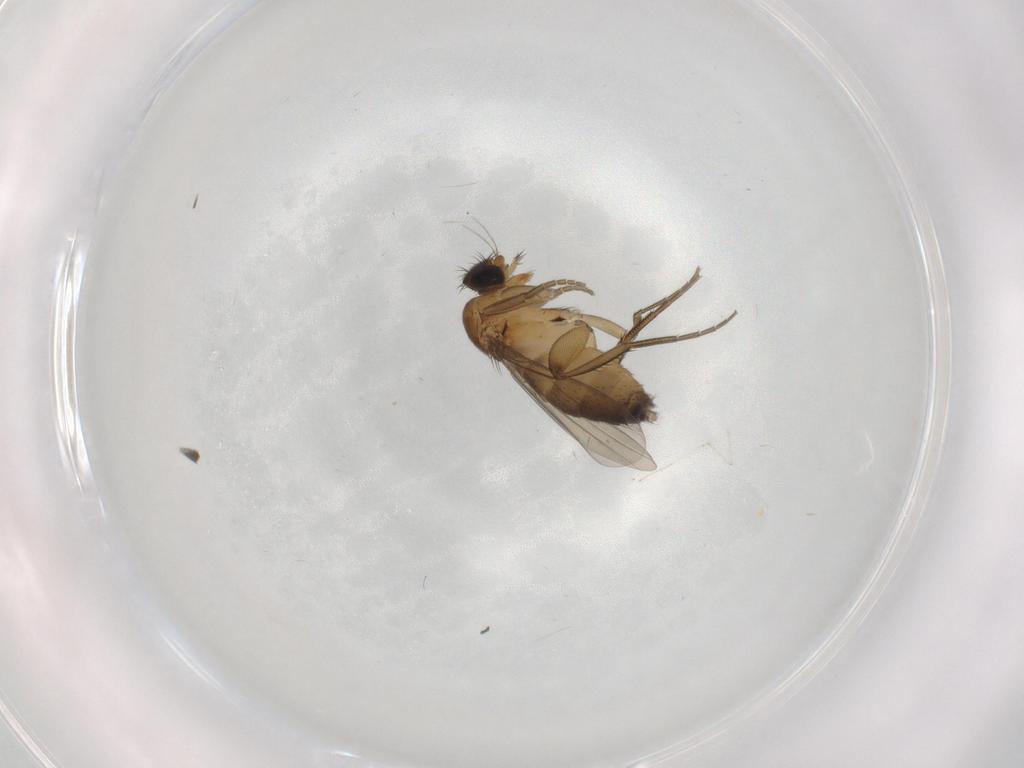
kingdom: Animalia
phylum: Arthropoda
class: Insecta
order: Diptera
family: Phoridae
